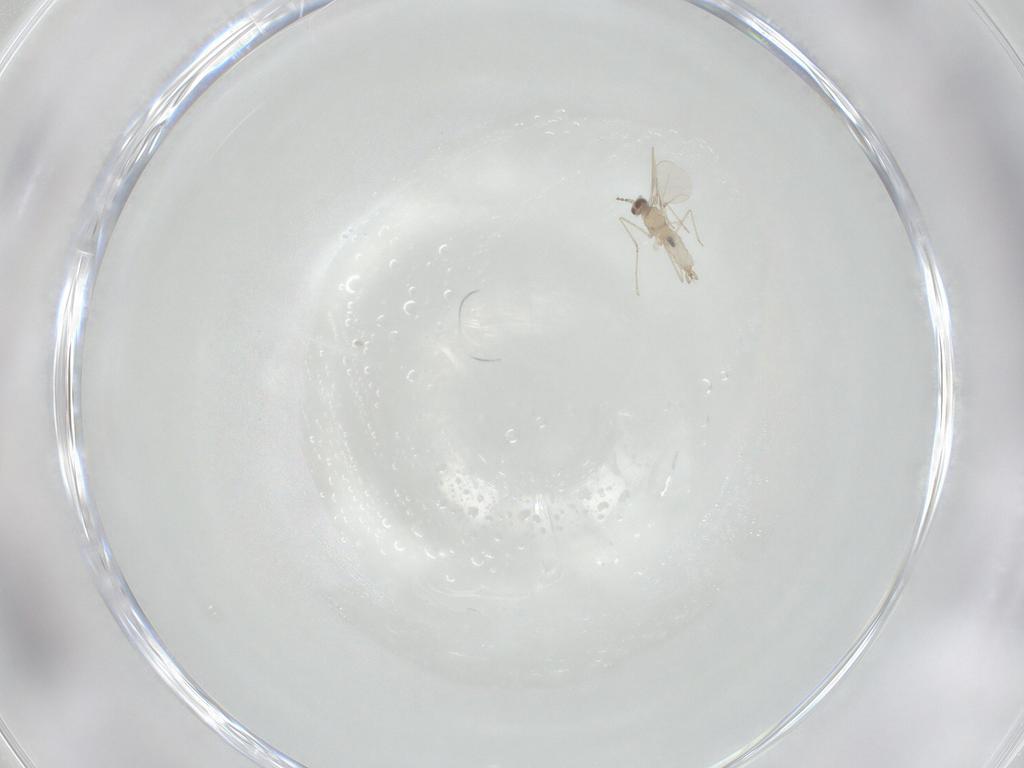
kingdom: Animalia
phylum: Arthropoda
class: Insecta
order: Diptera
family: Cecidomyiidae
